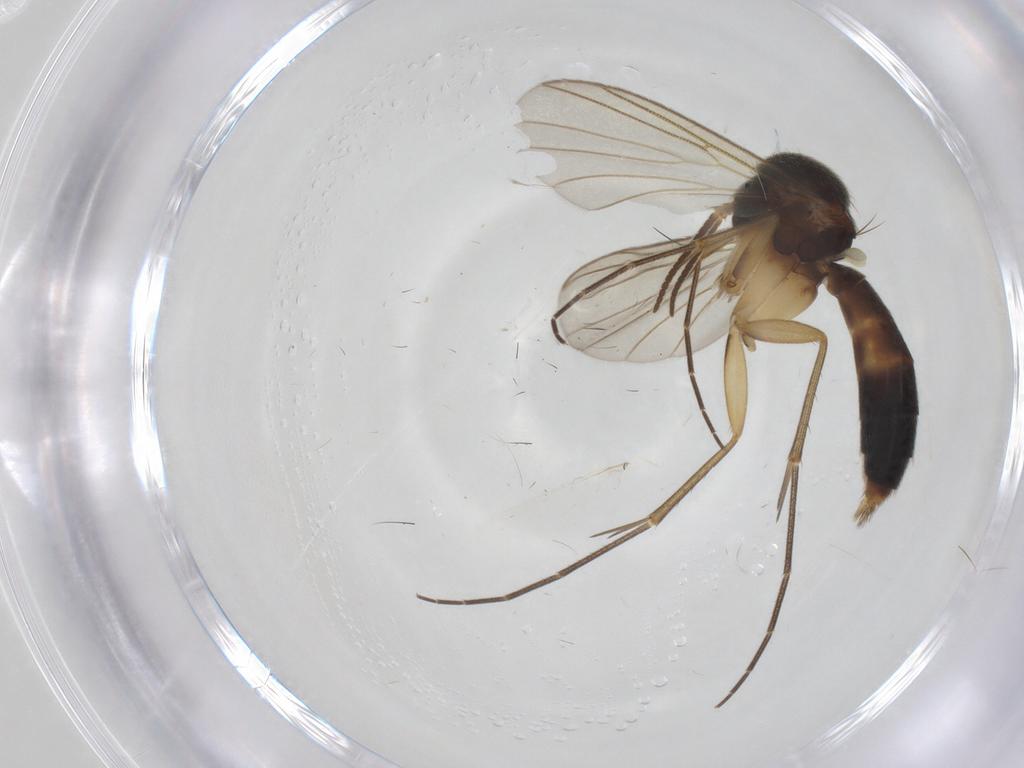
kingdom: Animalia
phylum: Arthropoda
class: Insecta
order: Diptera
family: Mycetophilidae
